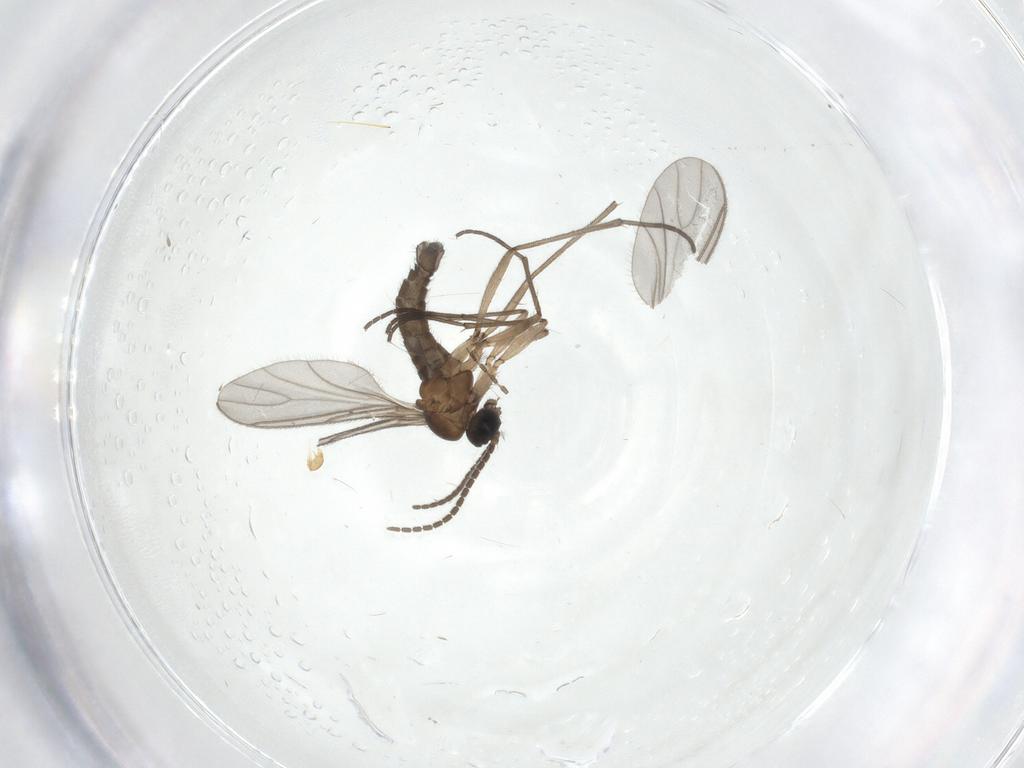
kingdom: Animalia
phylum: Arthropoda
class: Insecta
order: Diptera
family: Sciaridae
